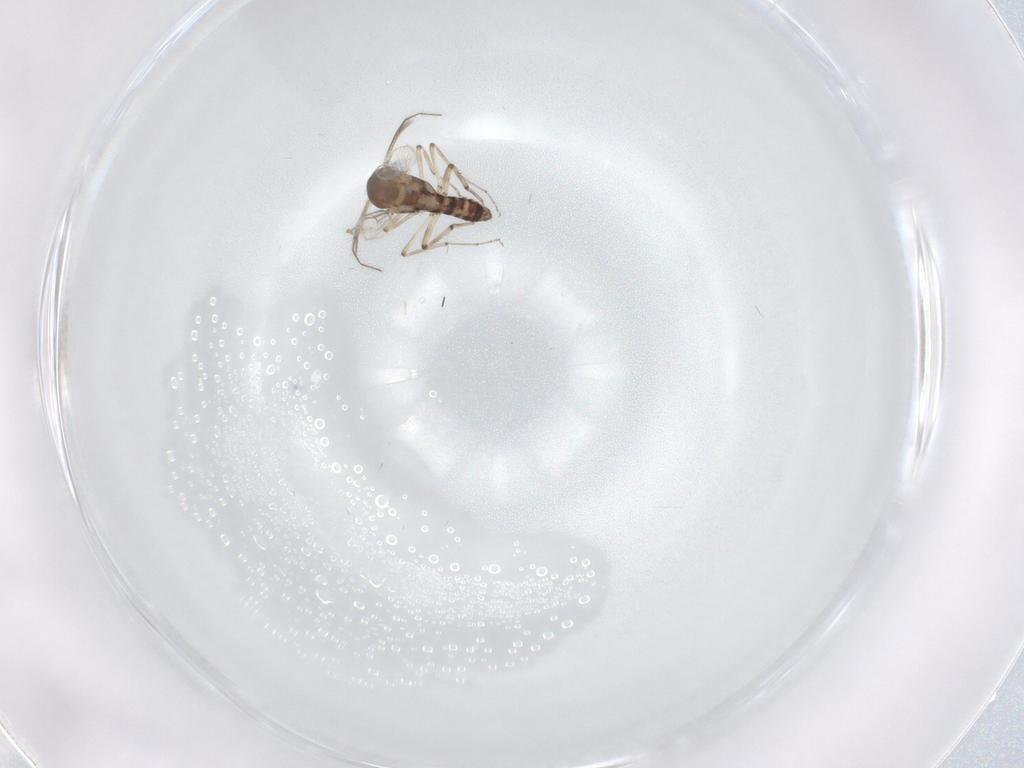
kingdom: Animalia
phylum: Arthropoda
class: Insecta
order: Diptera
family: Ceratopogonidae
